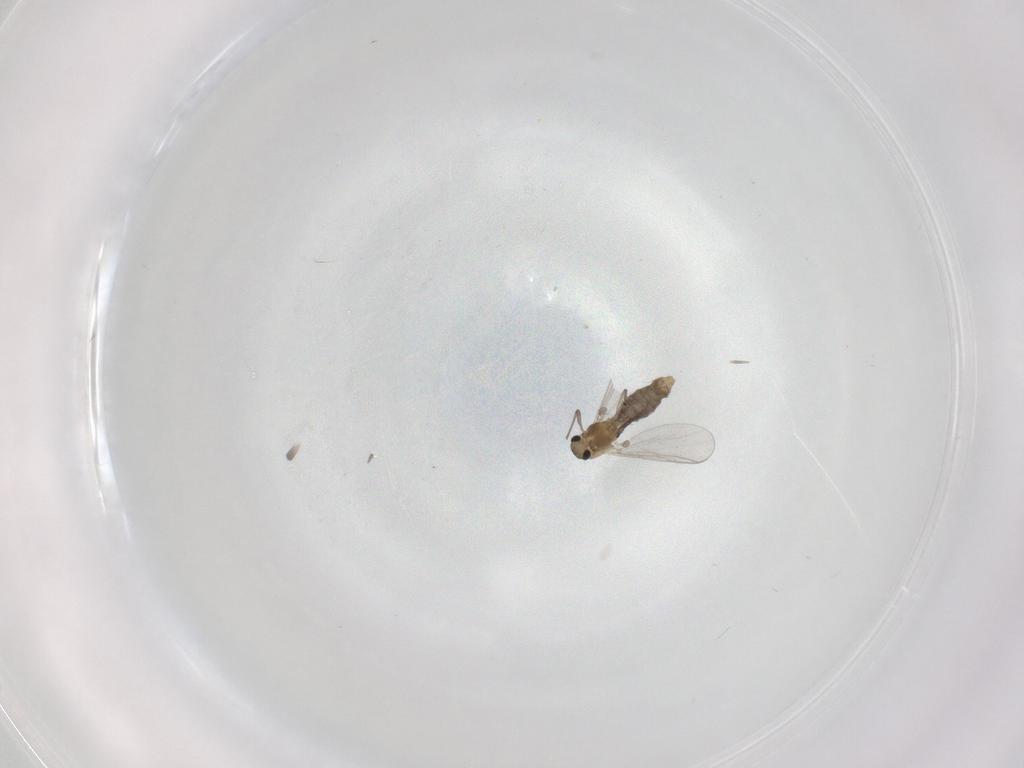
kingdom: Animalia
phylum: Arthropoda
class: Insecta
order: Diptera
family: Chironomidae
